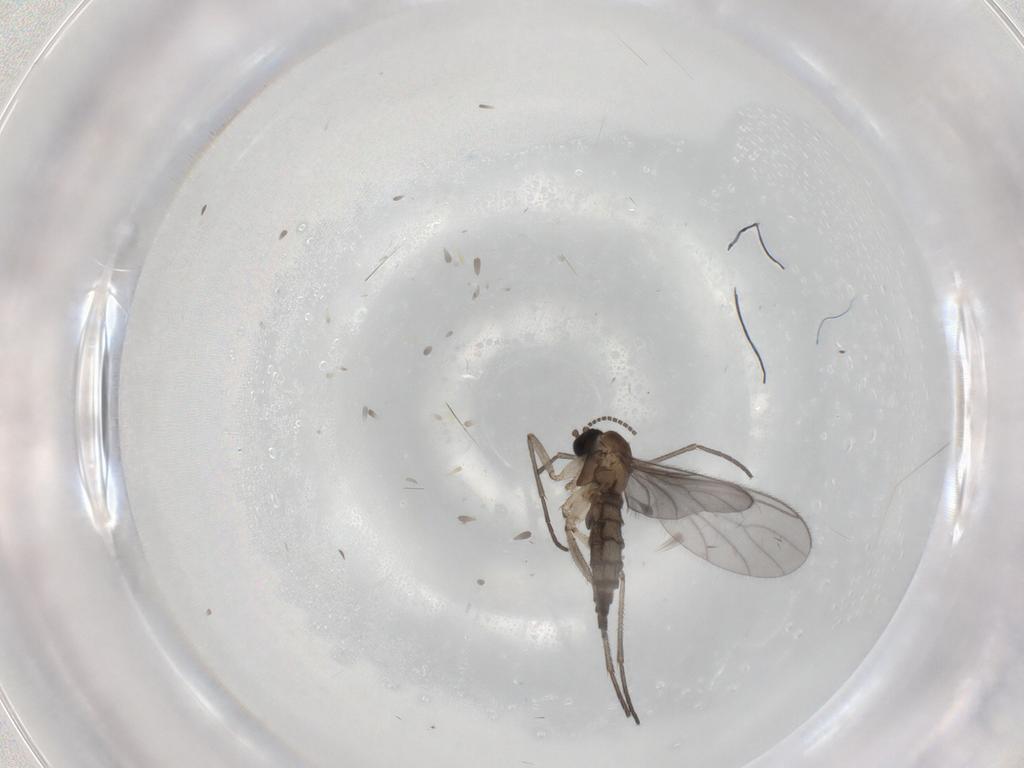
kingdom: Animalia
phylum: Arthropoda
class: Insecta
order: Diptera
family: Sciaridae
